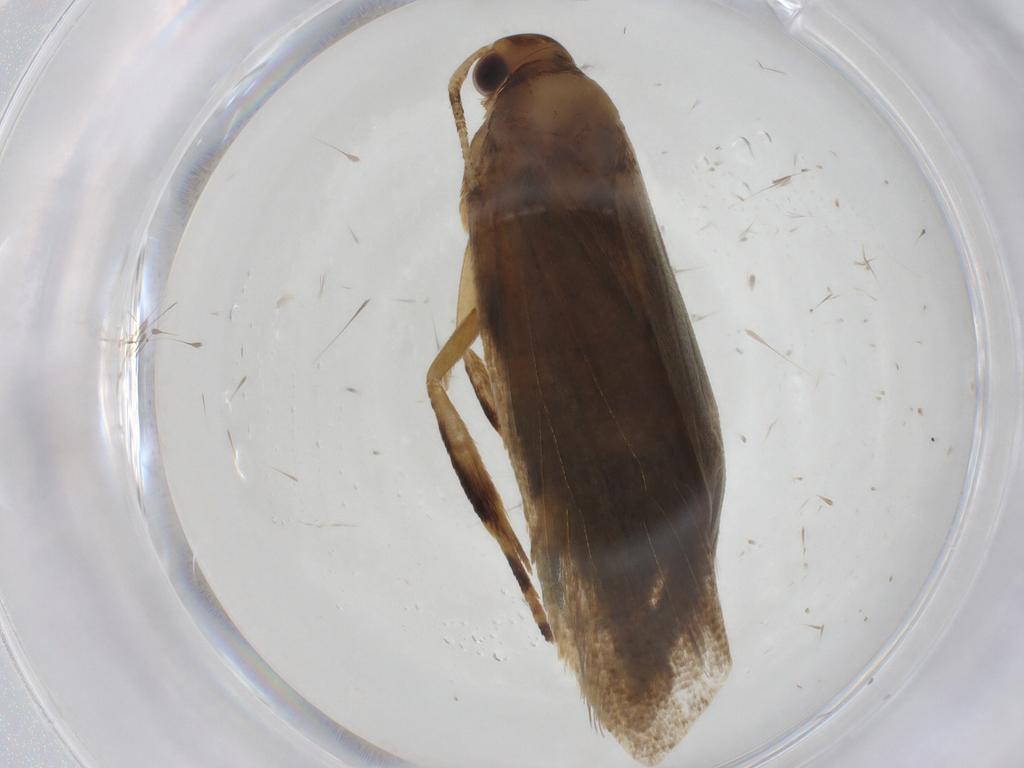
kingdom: Animalia
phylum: Arthropoda
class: Insecta
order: Lepidoptera
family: Lecithoceridae
